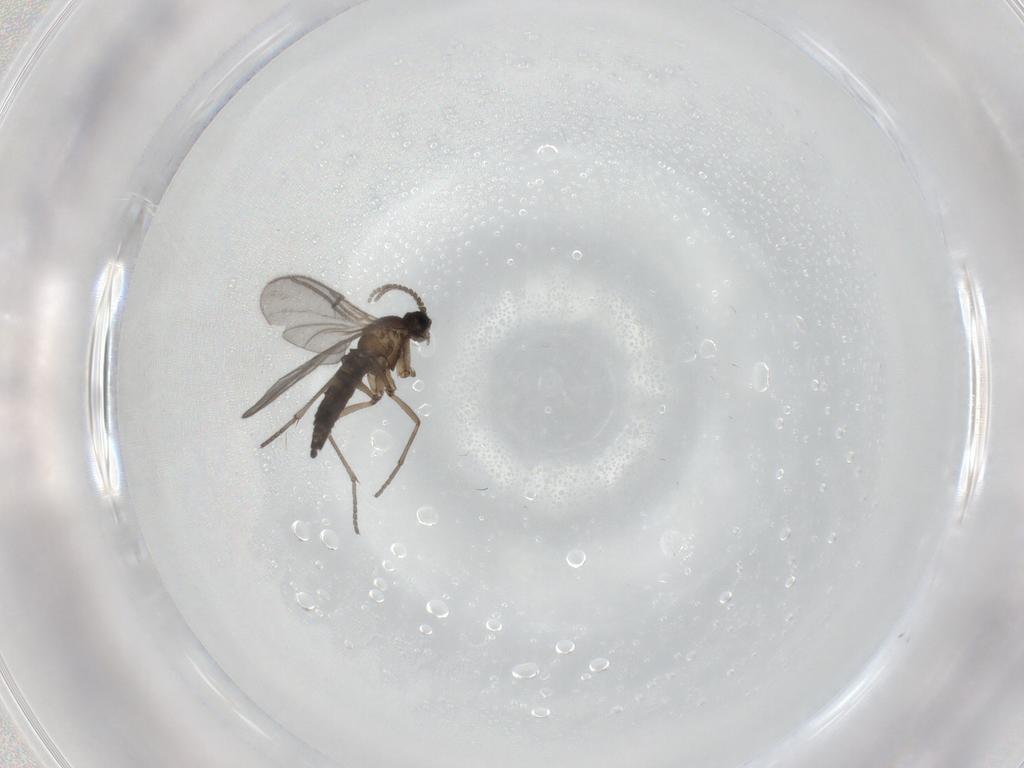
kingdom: Animalia
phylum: Arthropoda
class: Insecta
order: Diptera
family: Sciaridae
